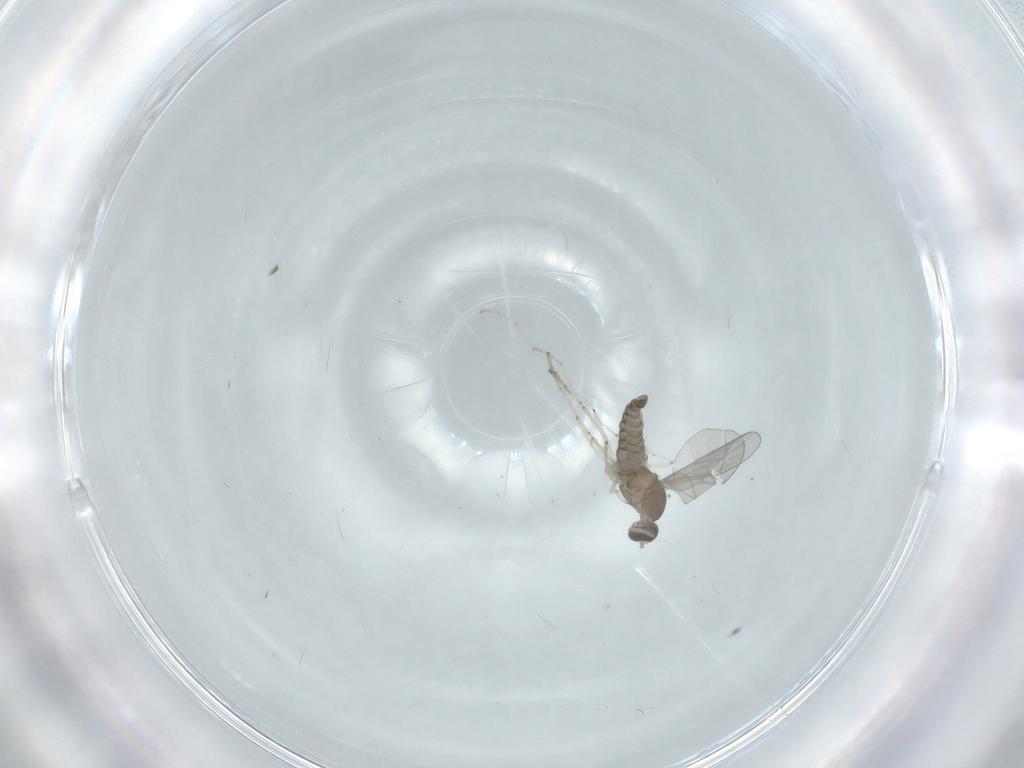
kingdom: Animalia
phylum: Arthropoda
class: Insecta
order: Diptera
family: Cecidomyiidae
